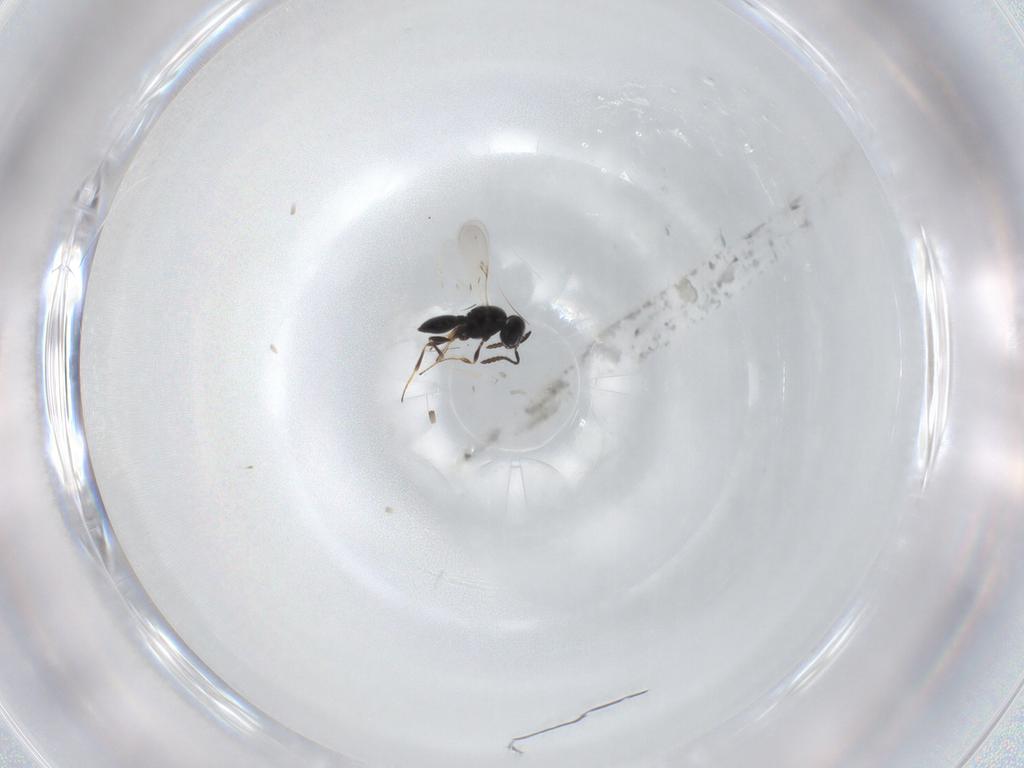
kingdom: Animalia
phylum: Arthropoda
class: Insecta
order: Hymenoptera
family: Scelionidae
